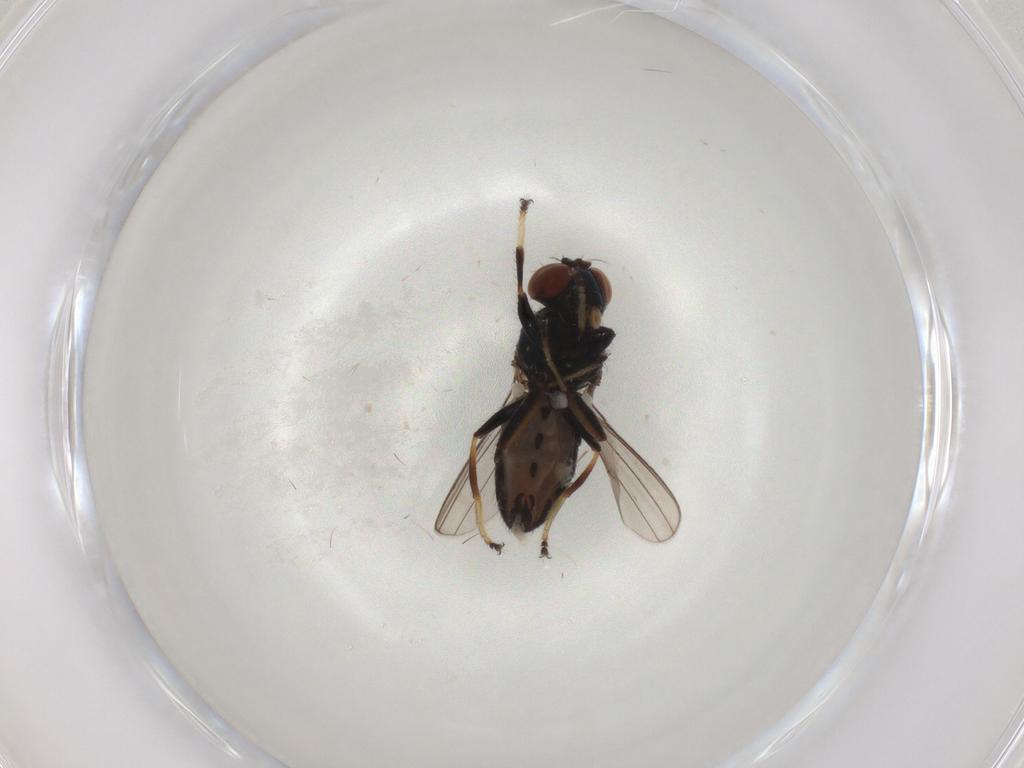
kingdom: Animalia
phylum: Arthropoda
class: Insecta
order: Diptera
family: Ephydridae
